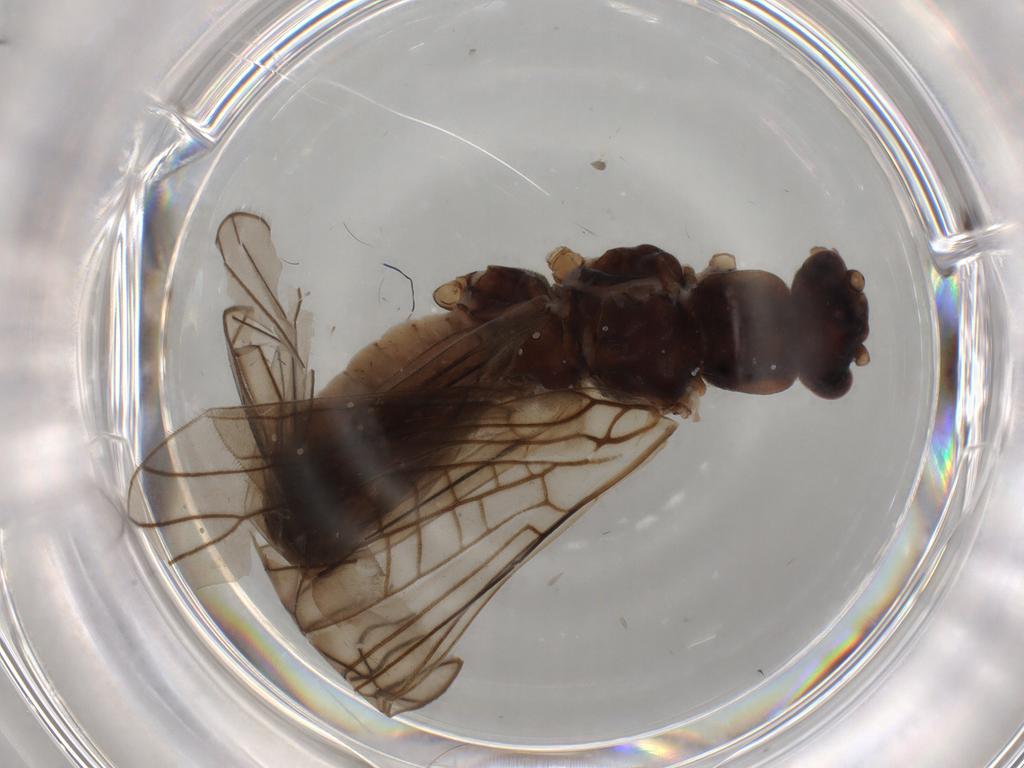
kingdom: Animalia
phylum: Arthropoda
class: Insecta
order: Plecoptera
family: Nemouridae
